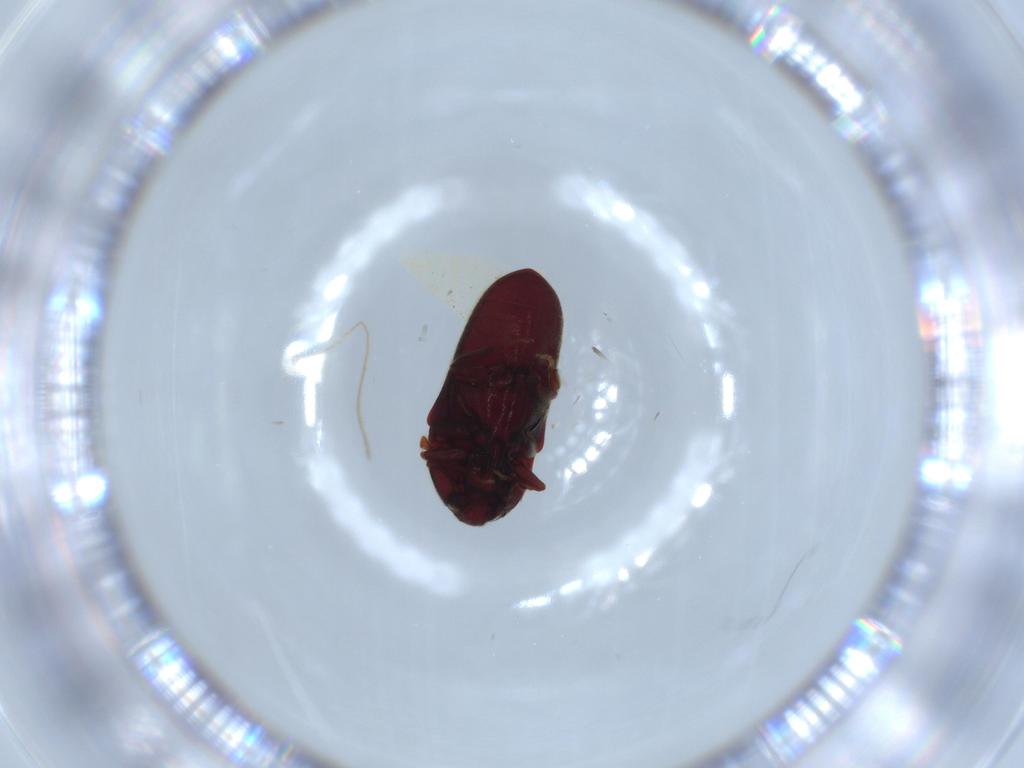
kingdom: Animalia
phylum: Arthropoda
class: Insecta
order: Coleoptera
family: Throscidae
